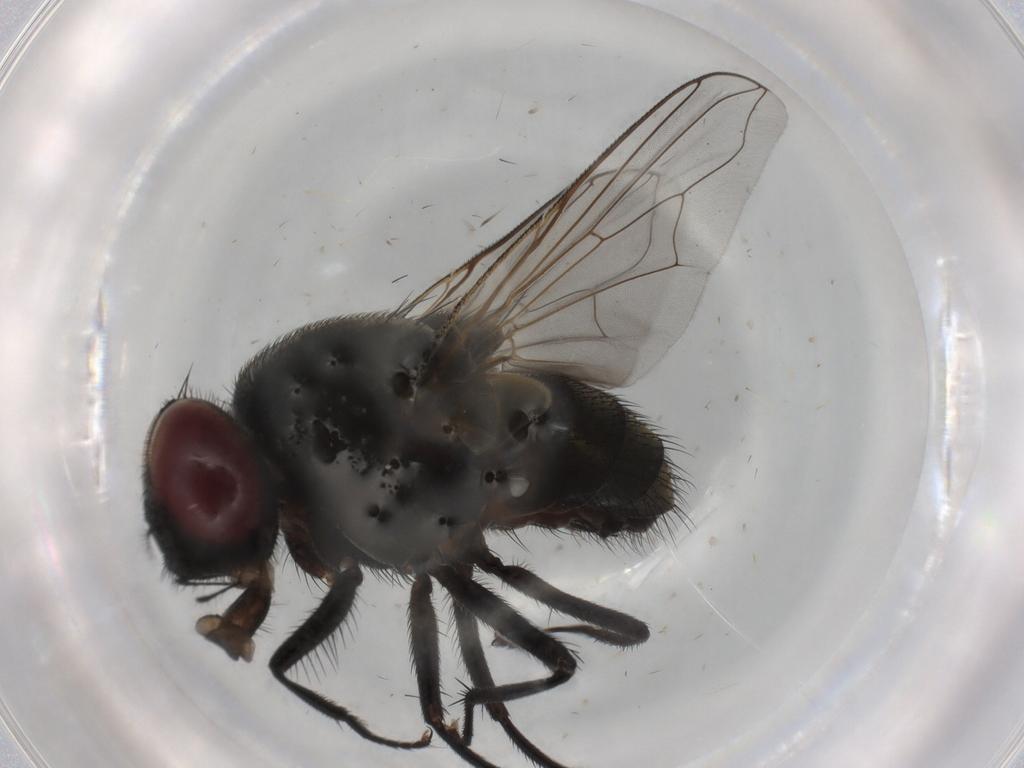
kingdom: Animalia
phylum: Arthropoda
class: Insecta
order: Diptera
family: Muscidae
